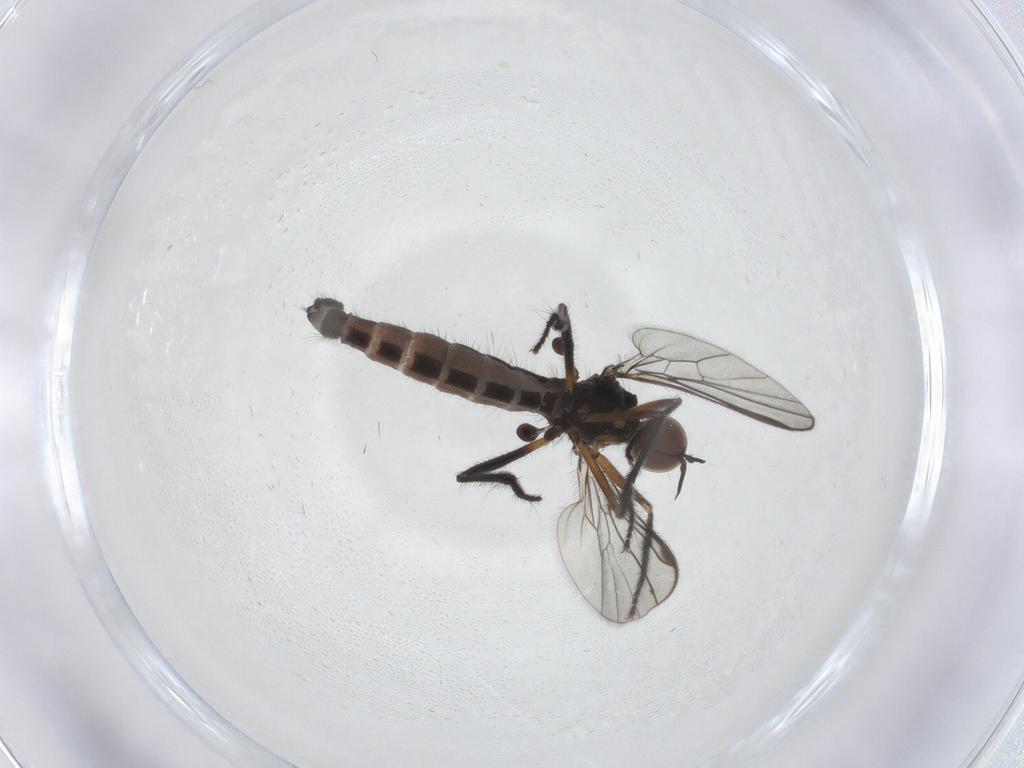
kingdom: Animalia
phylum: Arthropoda
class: Insecta
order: Diptera
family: Empididae
